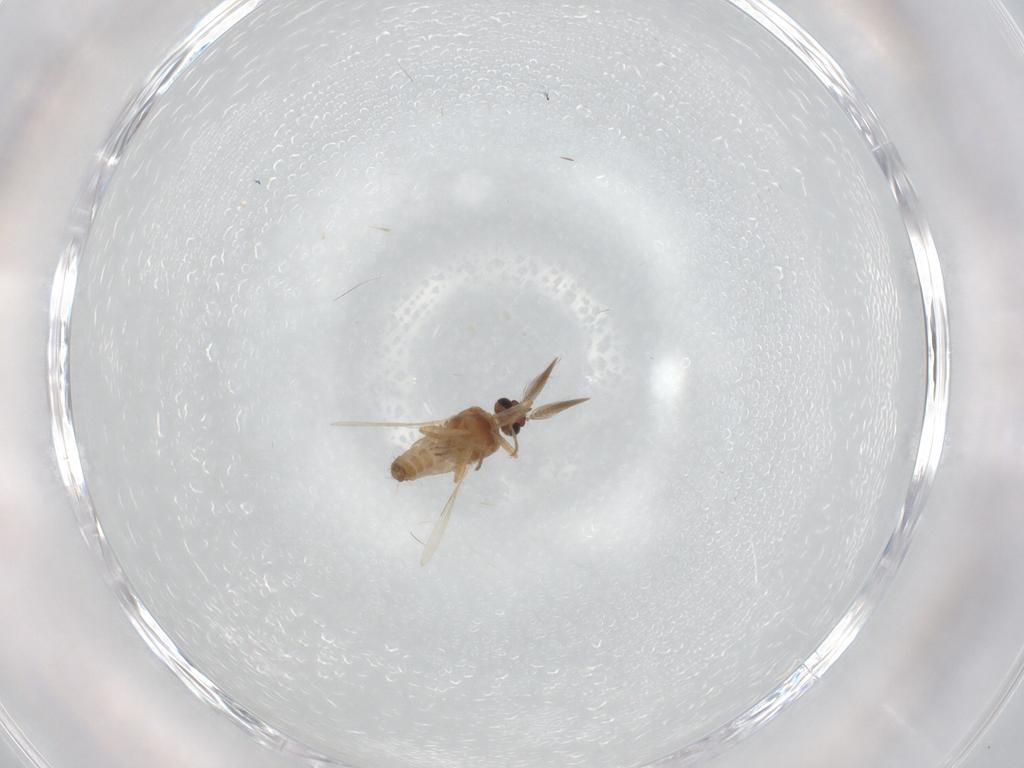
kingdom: Animalia
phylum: Arthropoda
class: Insecta
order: Diptera
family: Ceratopogonidae
